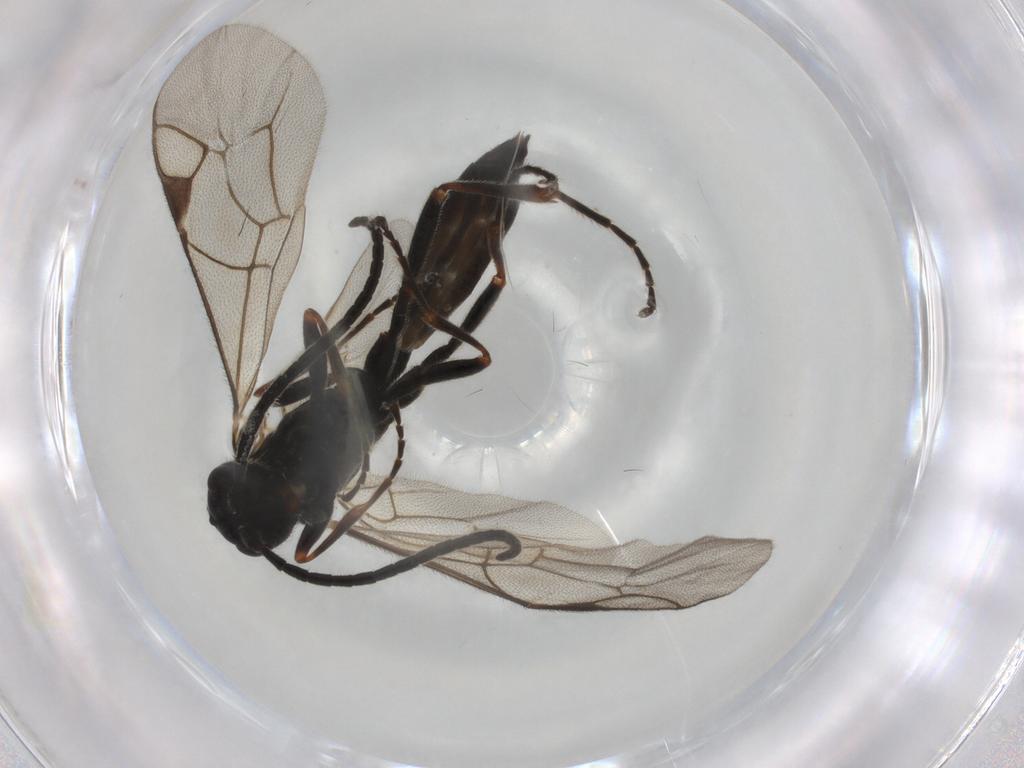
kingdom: Animalia
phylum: Arthropoda
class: Insecta
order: Hymenoptera
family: Ichneumonidae
